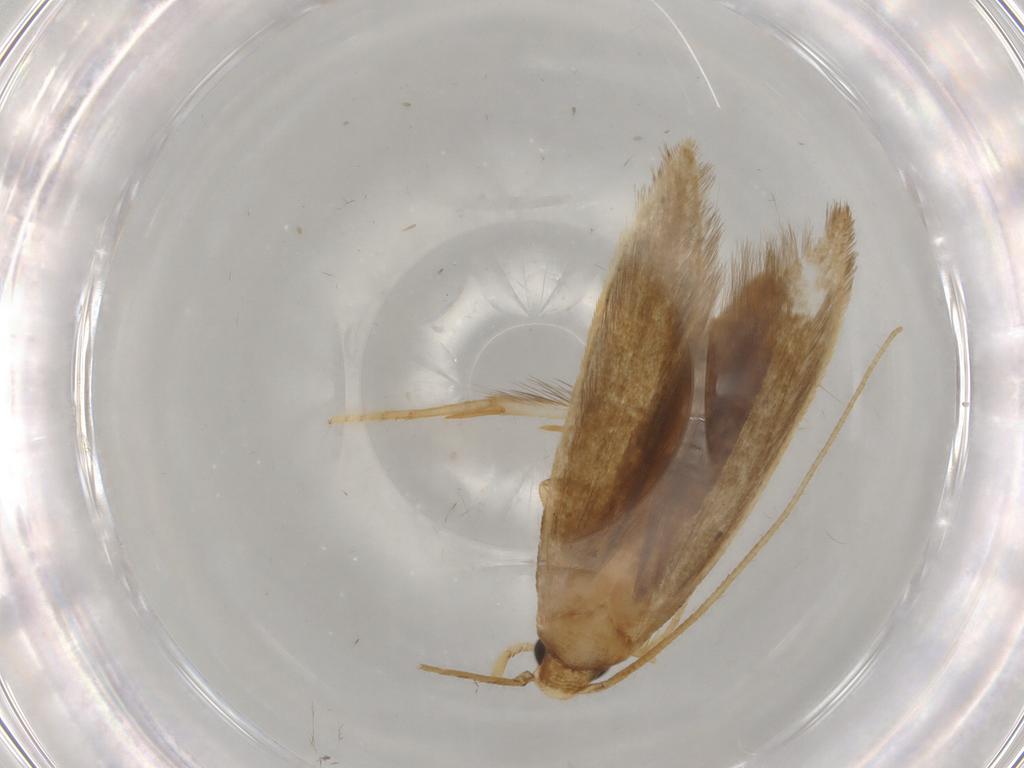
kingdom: Animalia
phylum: Arthropoda
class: Insecta
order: Lepidoptera
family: Tineidae
